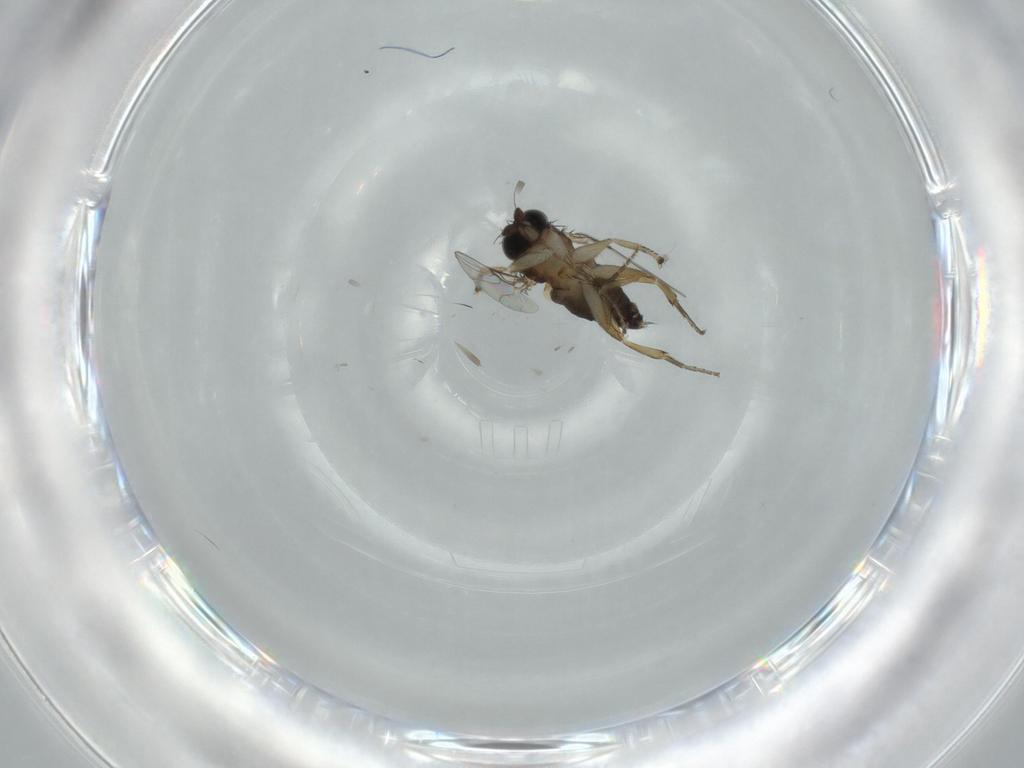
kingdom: Animalia
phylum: Arthropoda
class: Insecta
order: Diptera
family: Phoridae
